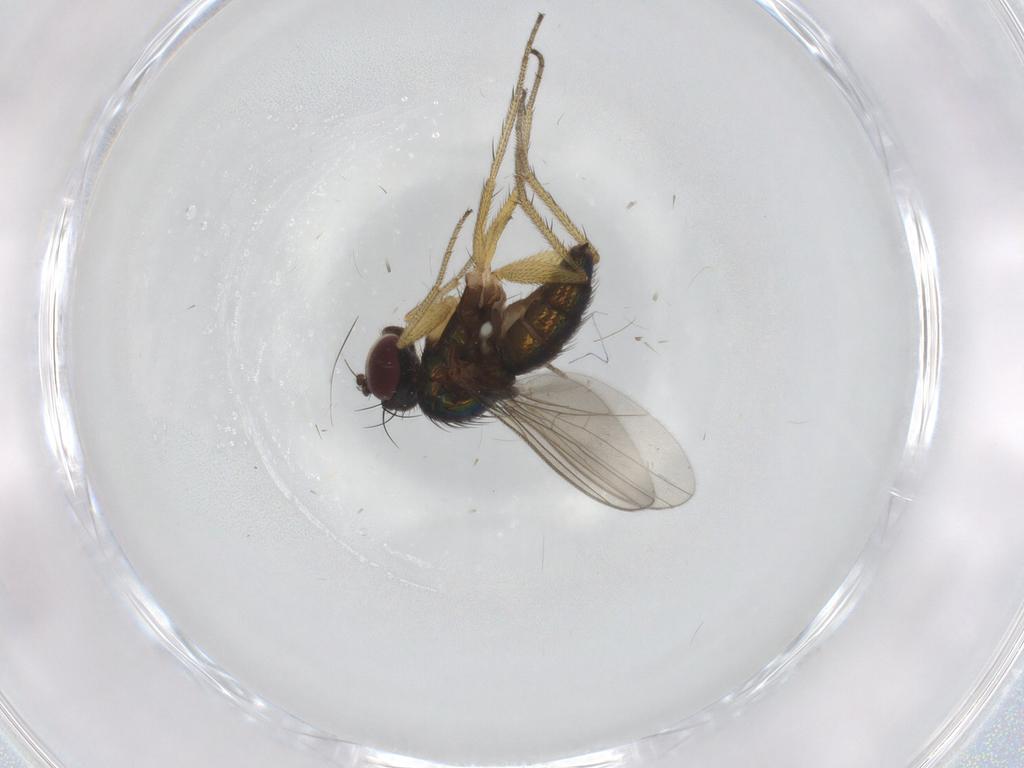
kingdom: Animalia
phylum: Arthropoda
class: Insecta
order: Diptera
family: Dolichopodidae
